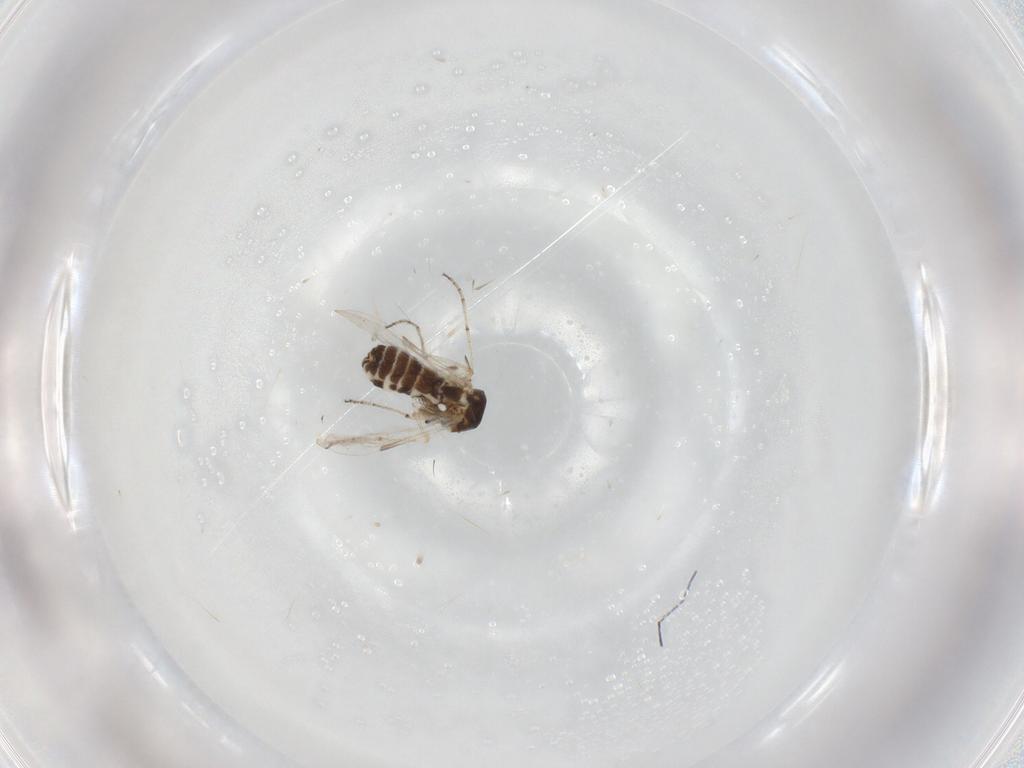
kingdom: Animalia
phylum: Arthropoda
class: Insecta
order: Diptera
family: Ceratopogonidae
